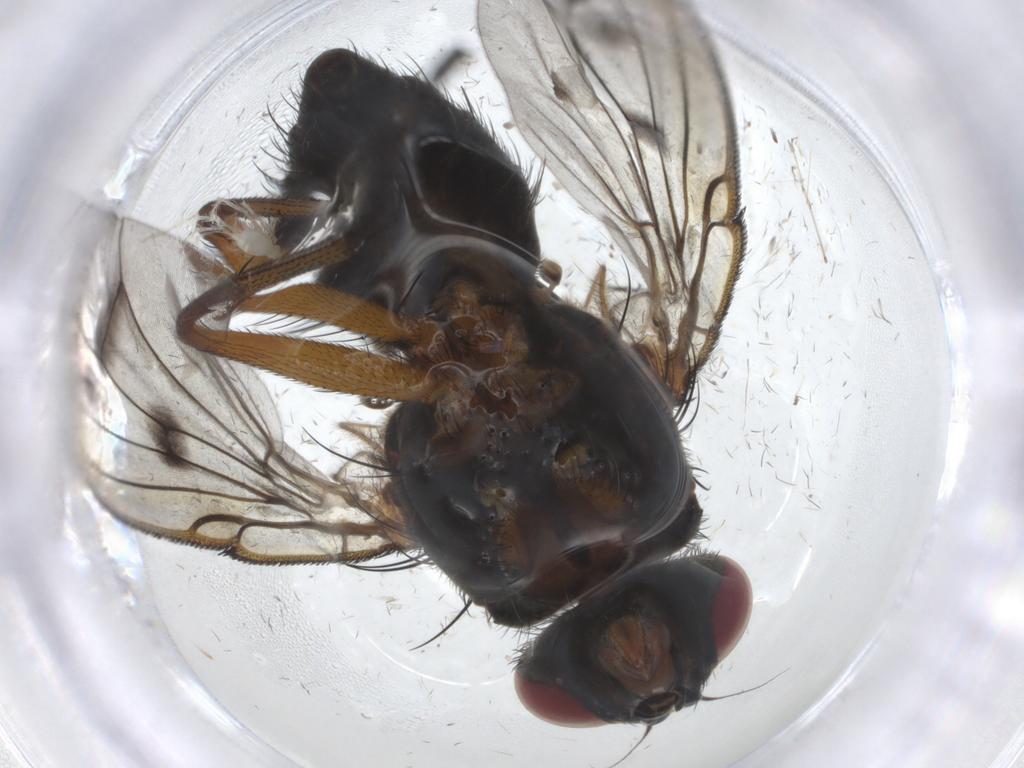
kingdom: Animalia
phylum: Arthropoda
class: Insecta
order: Diptera
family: Muscidae
